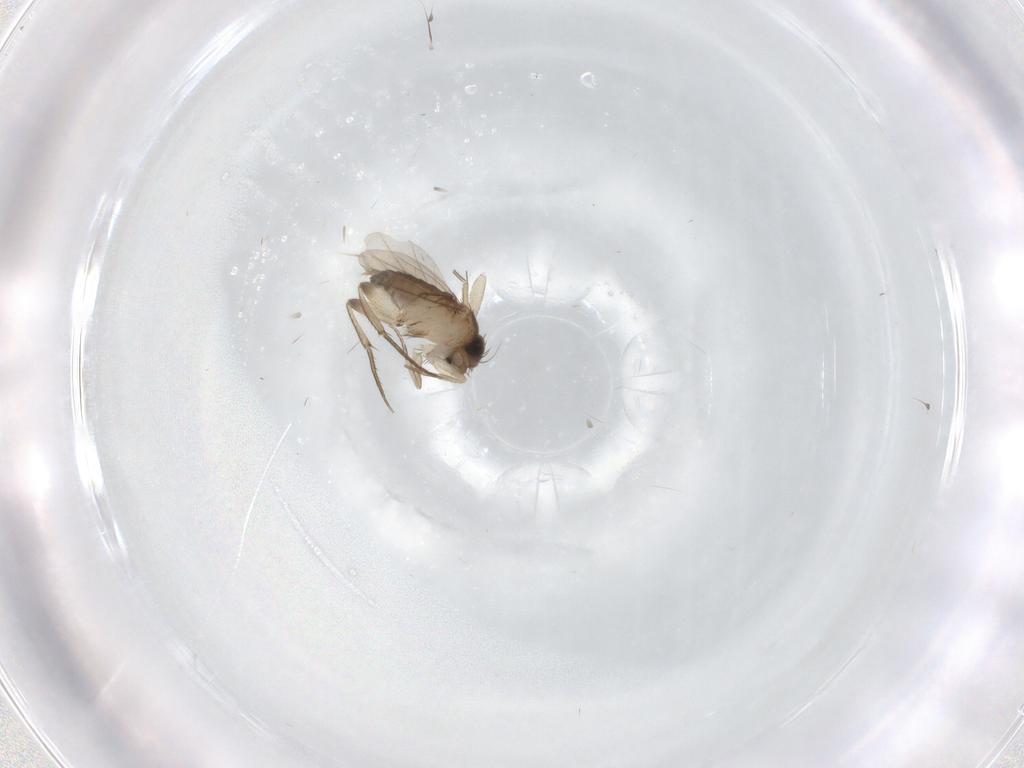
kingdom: Animalia
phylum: Arthropoda
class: Insecta
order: Diptera
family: Phoridae
